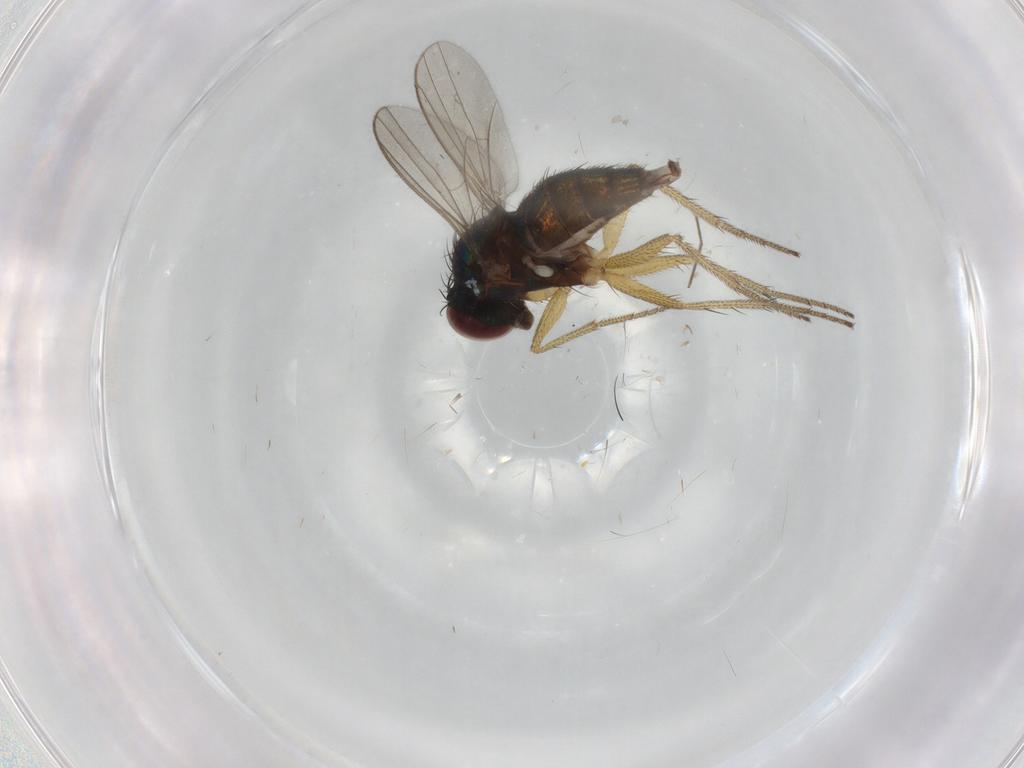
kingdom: Animalia
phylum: Arthropoda
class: Insecta
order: Diptera
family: Dolichopodidae
